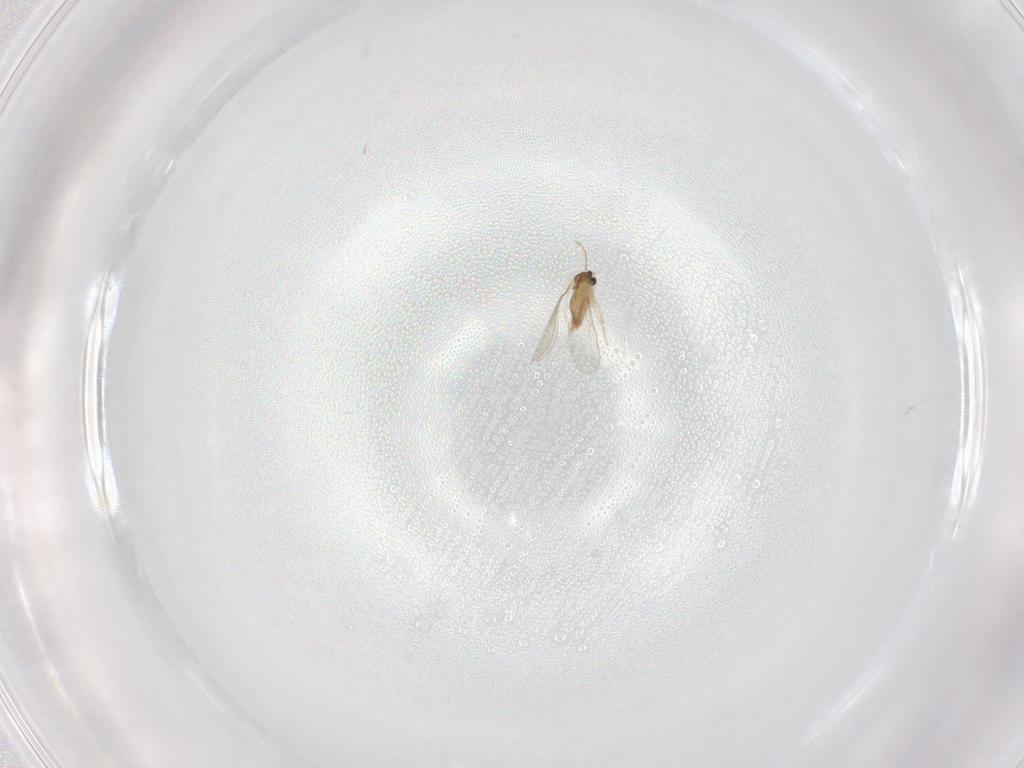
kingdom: Animalia
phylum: Arthropoda
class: Insecta
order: Diptera
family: Cecidomyiidae
